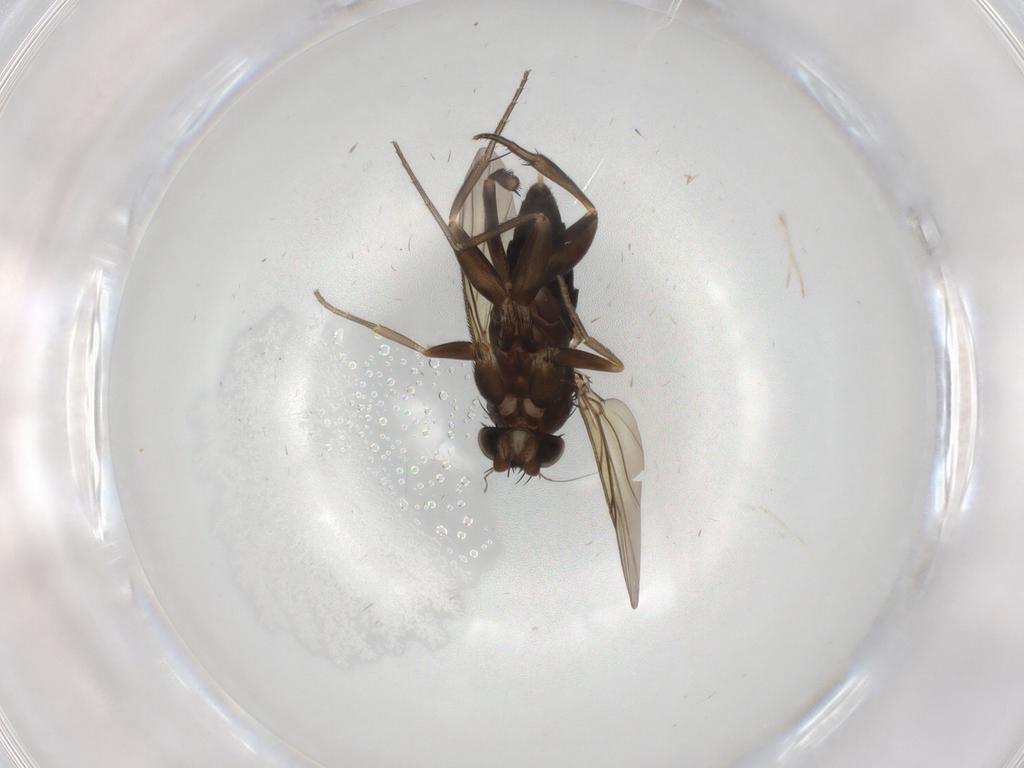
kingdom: Animalia
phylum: Arthropoda
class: Insecta
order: Diptera
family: Phoridae
